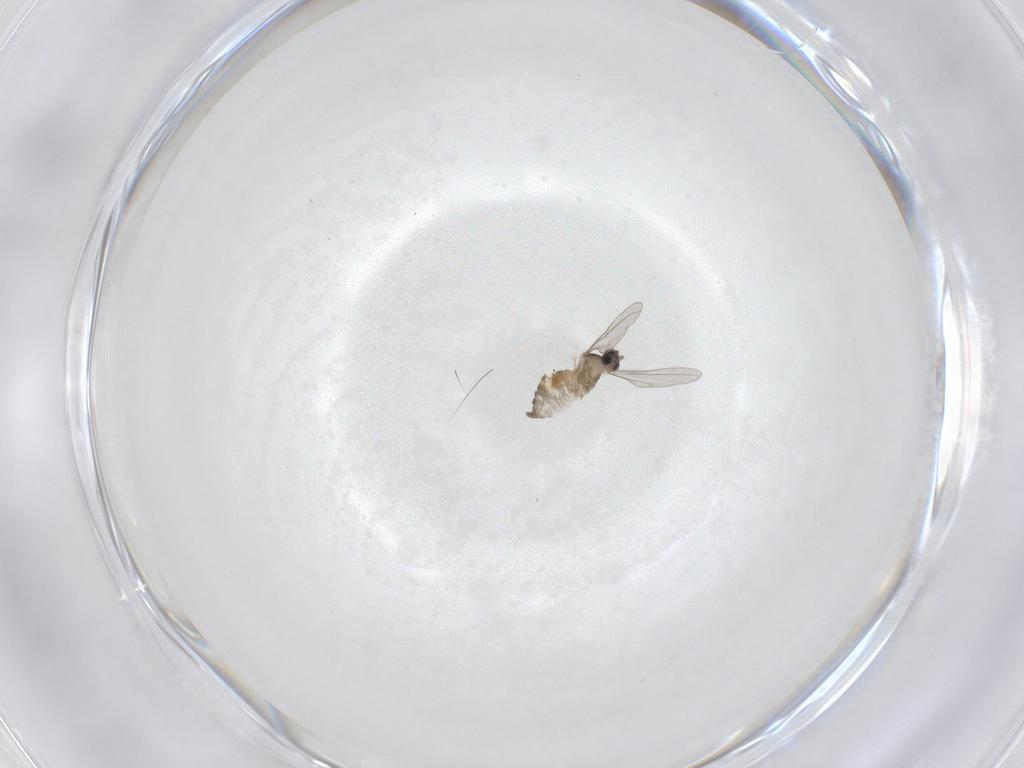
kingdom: Animalia
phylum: Arthropoda
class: Insecta
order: Diptera
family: Cecidomyiidae
